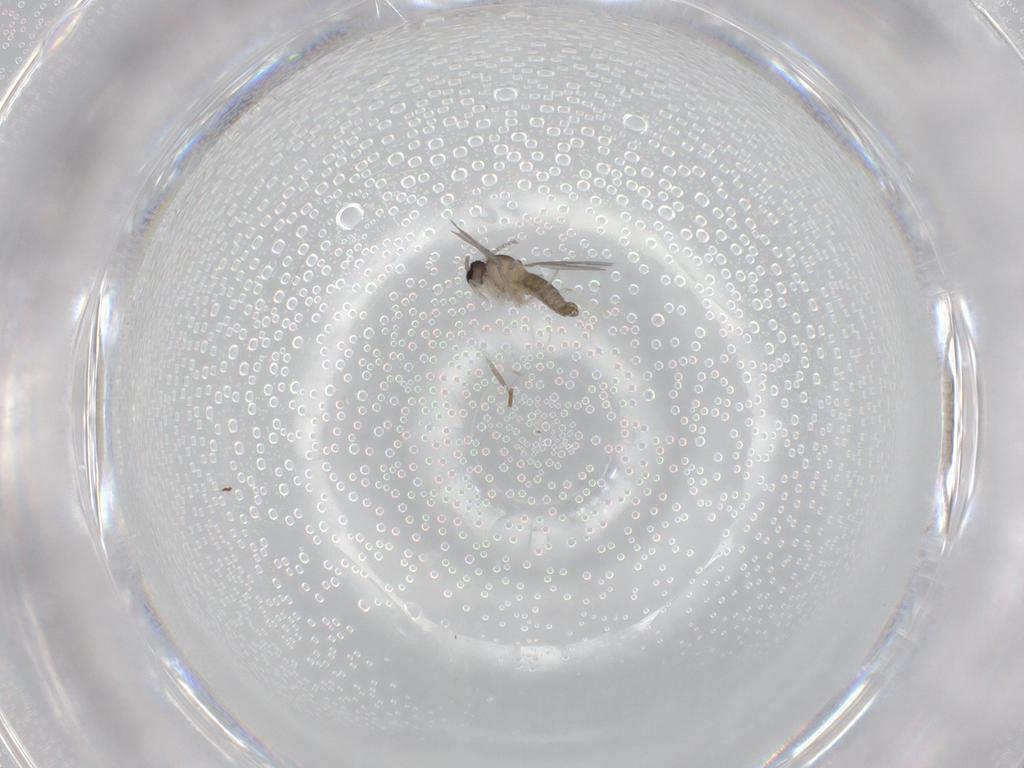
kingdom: Animalia
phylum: Arthropoda
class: Insecta
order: Diptera
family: Cecidomyiidae
